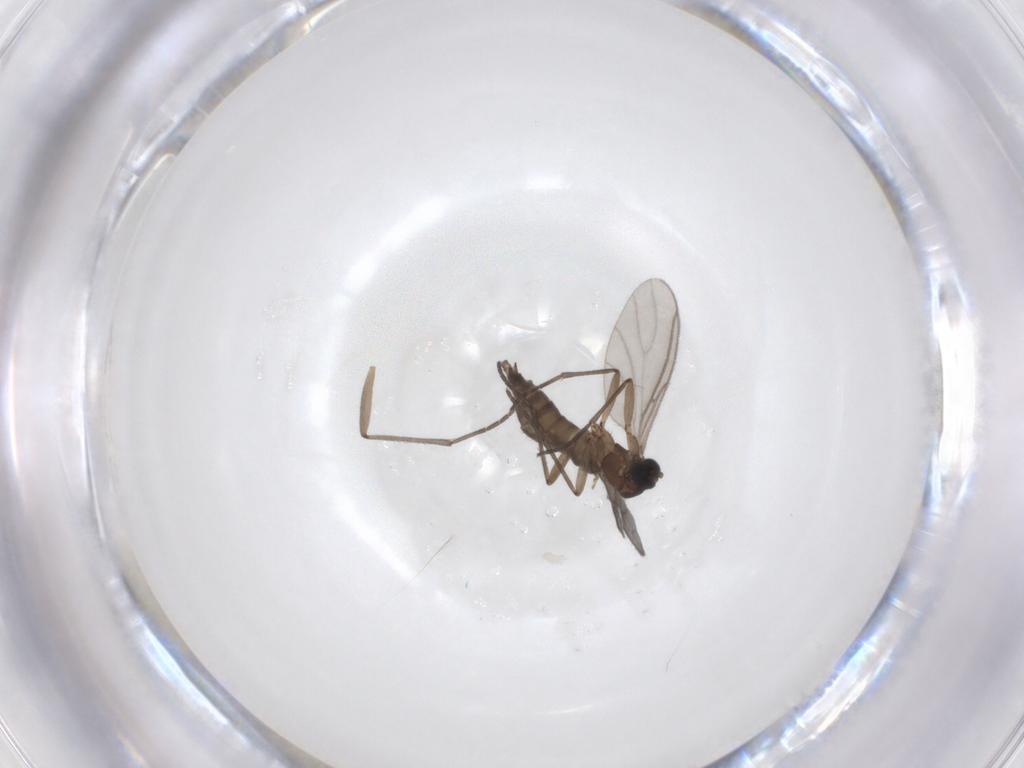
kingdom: Animalia
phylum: Arthropoda
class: Insecta
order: Diptera
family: Sciaridae
